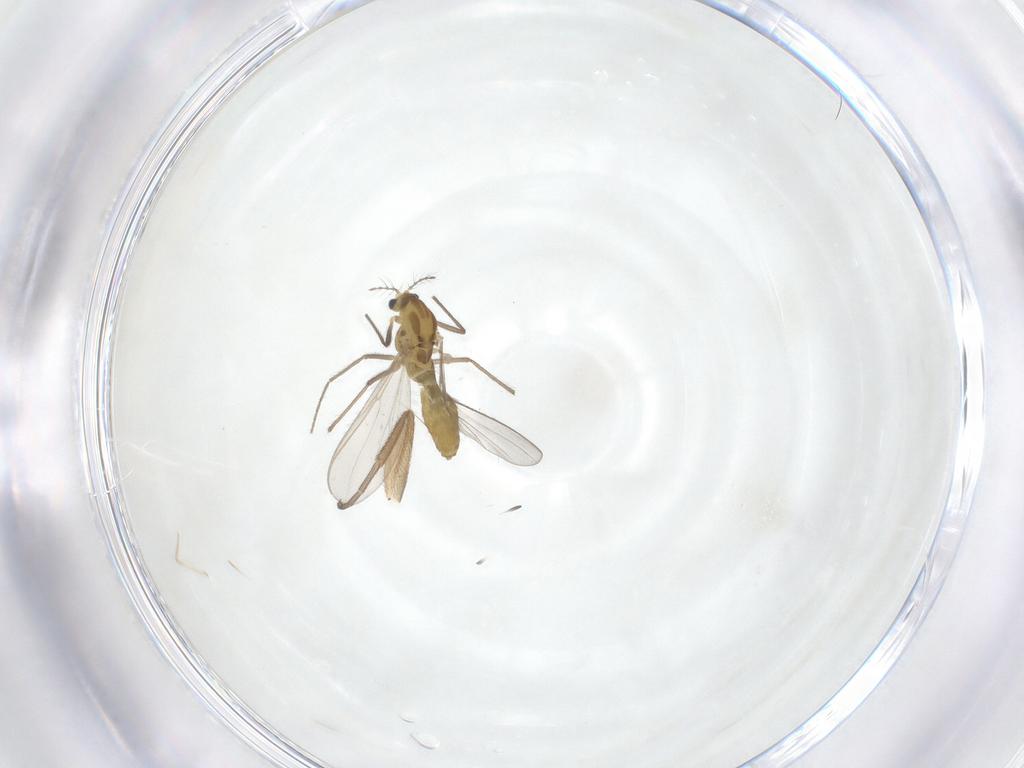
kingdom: Animalia
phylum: Arthropoda
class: Insecta
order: Diptera
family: Chironomidae
